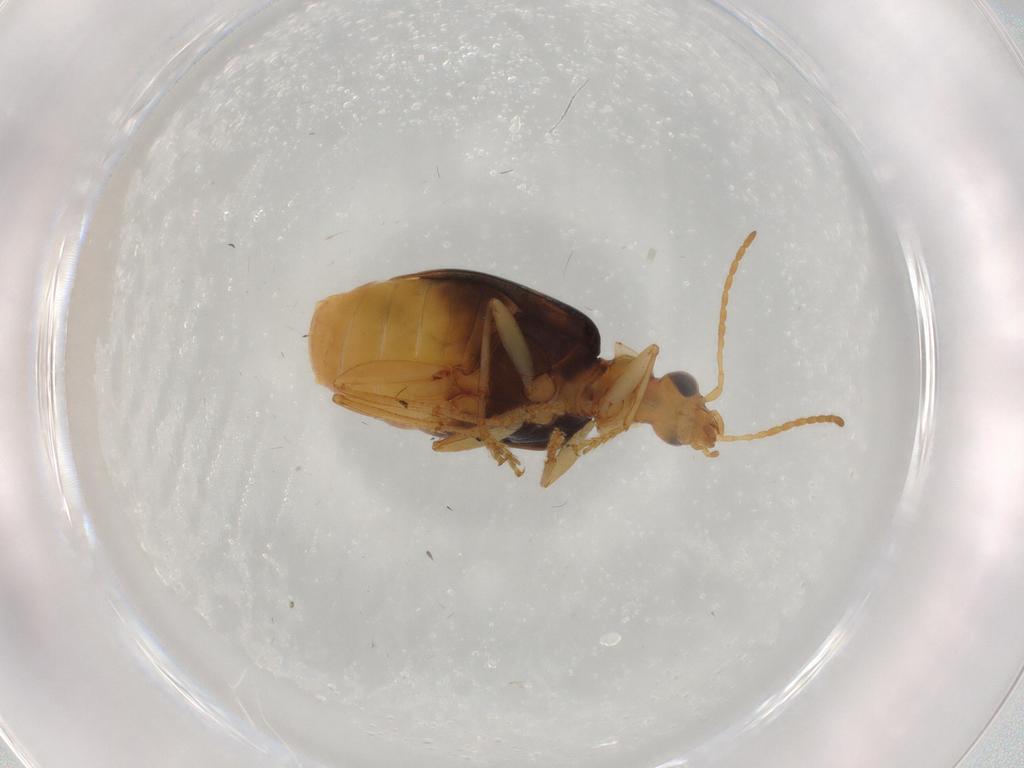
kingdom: Animalia
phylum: Arthropoda
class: Insecta
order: Coleoptera
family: Carabidae
